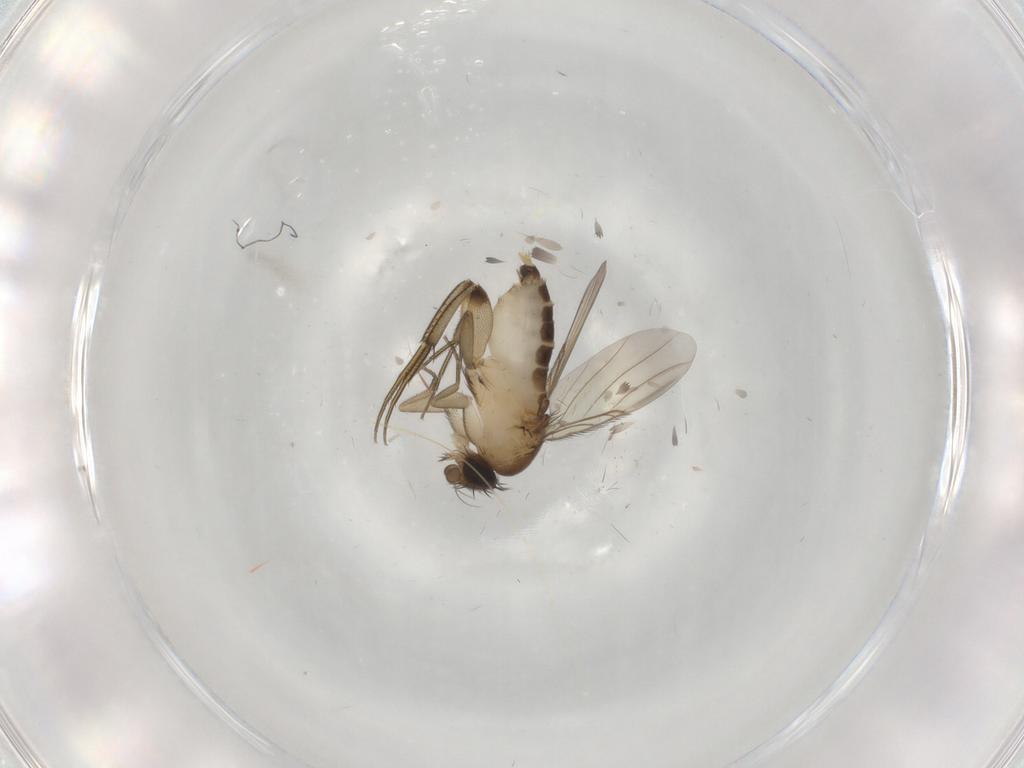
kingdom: Animalia
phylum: Arthropoda
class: Insecta
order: Diptera
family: Phoridae
